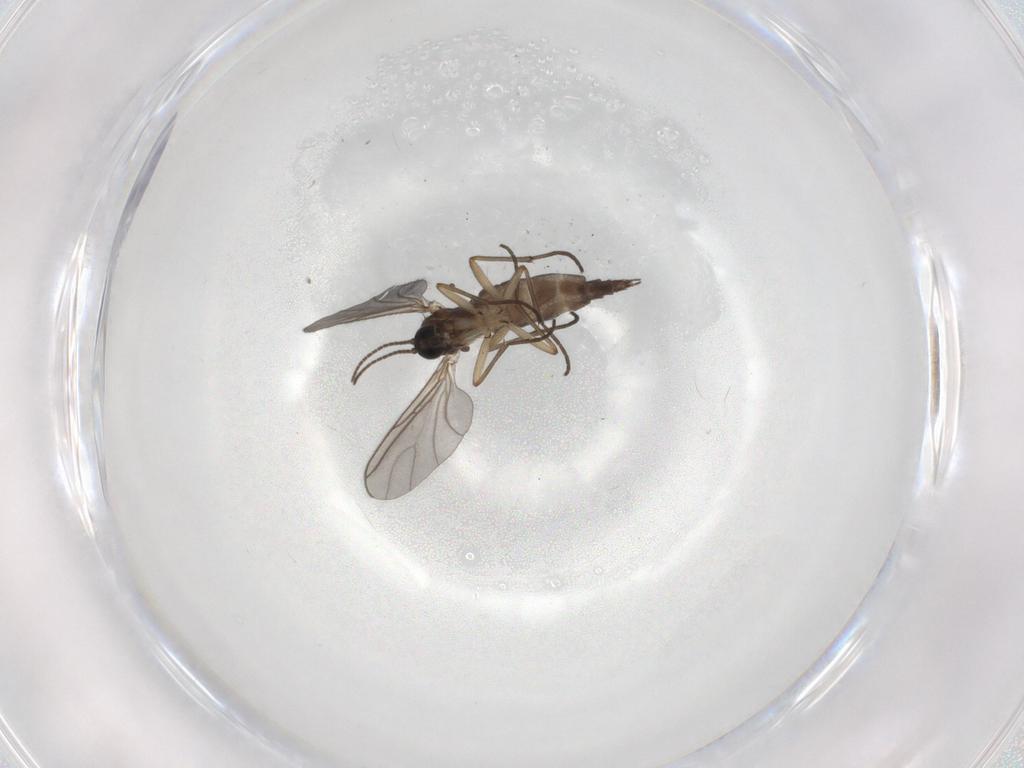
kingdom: Animalia
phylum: Arthropoda
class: Insecta
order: Diptera
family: Sciaridae
